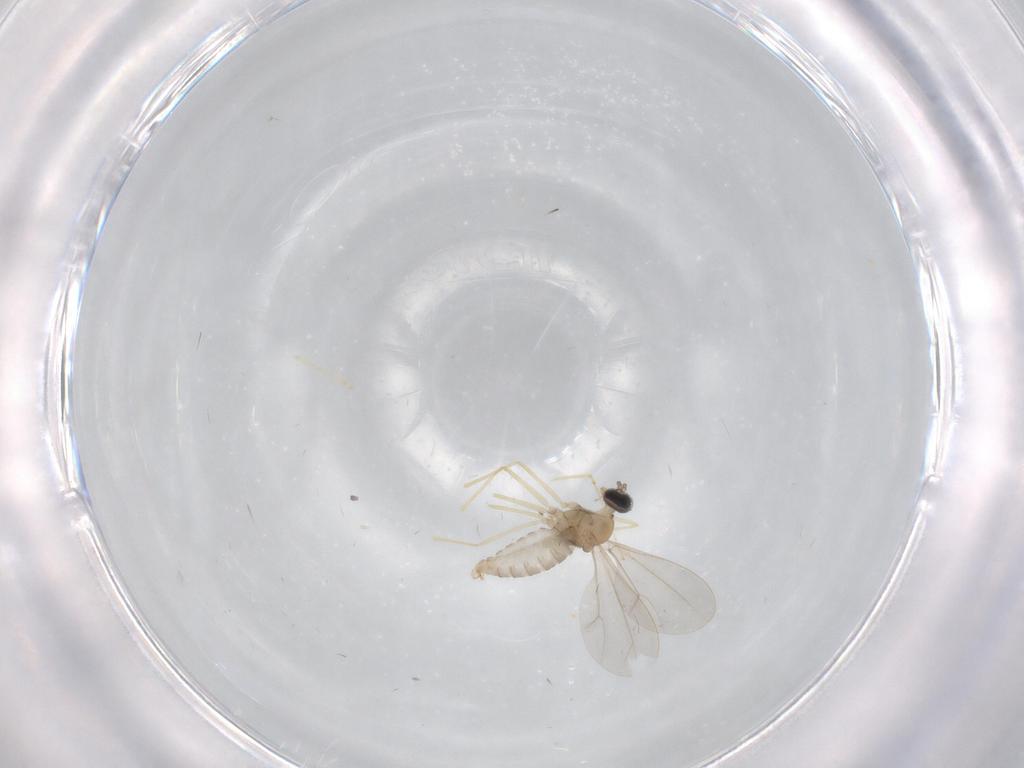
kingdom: Animalia
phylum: Arthropoda
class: Insecta
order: Diptera
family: Cecidomyiidae
